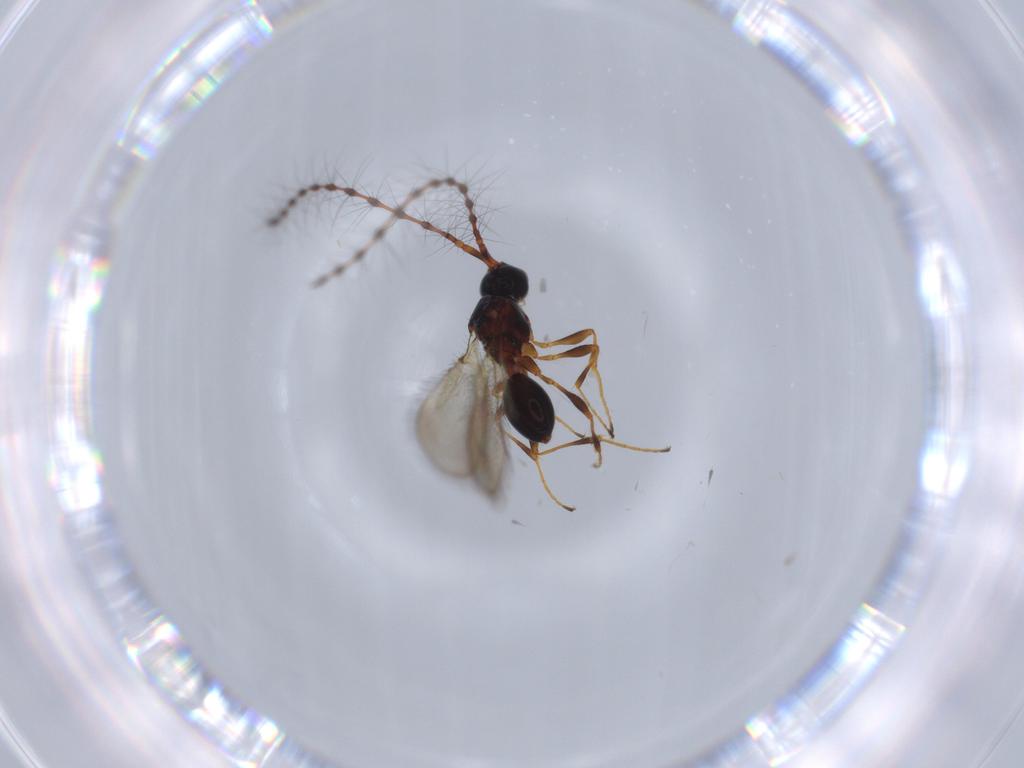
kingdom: Animalia
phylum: Arthropoda
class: Insecta
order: Hymenoptera
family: Diapriidae
